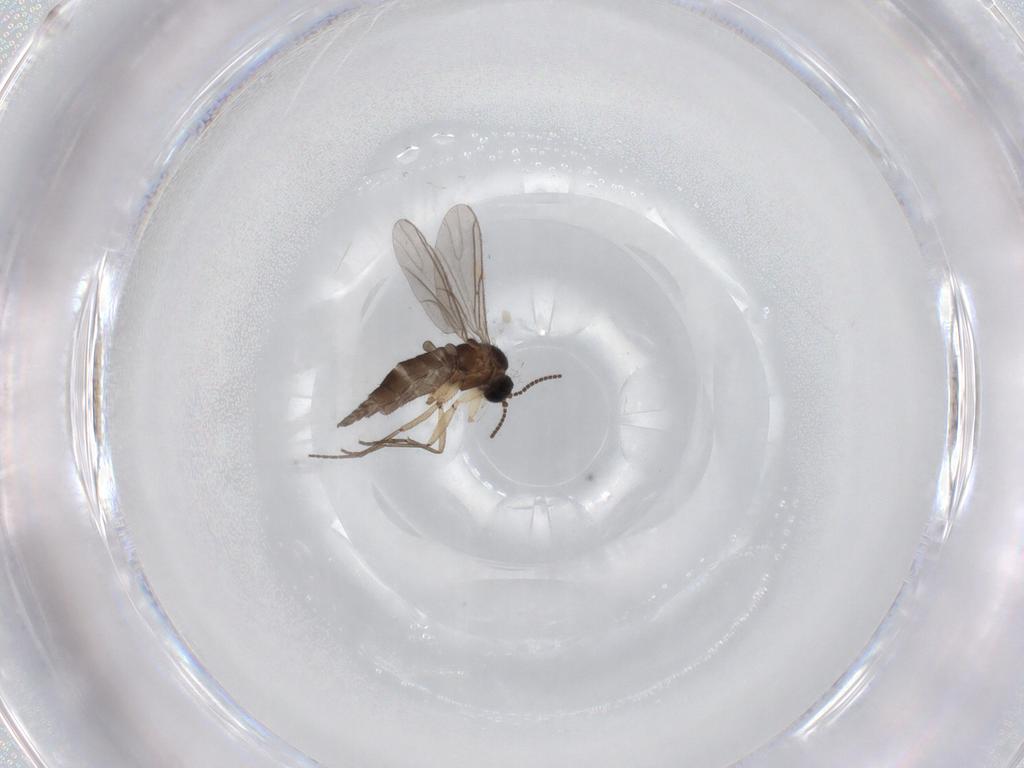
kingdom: Animalia
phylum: Arthropoda
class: Insecta
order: Diptera
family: Sciaridae
